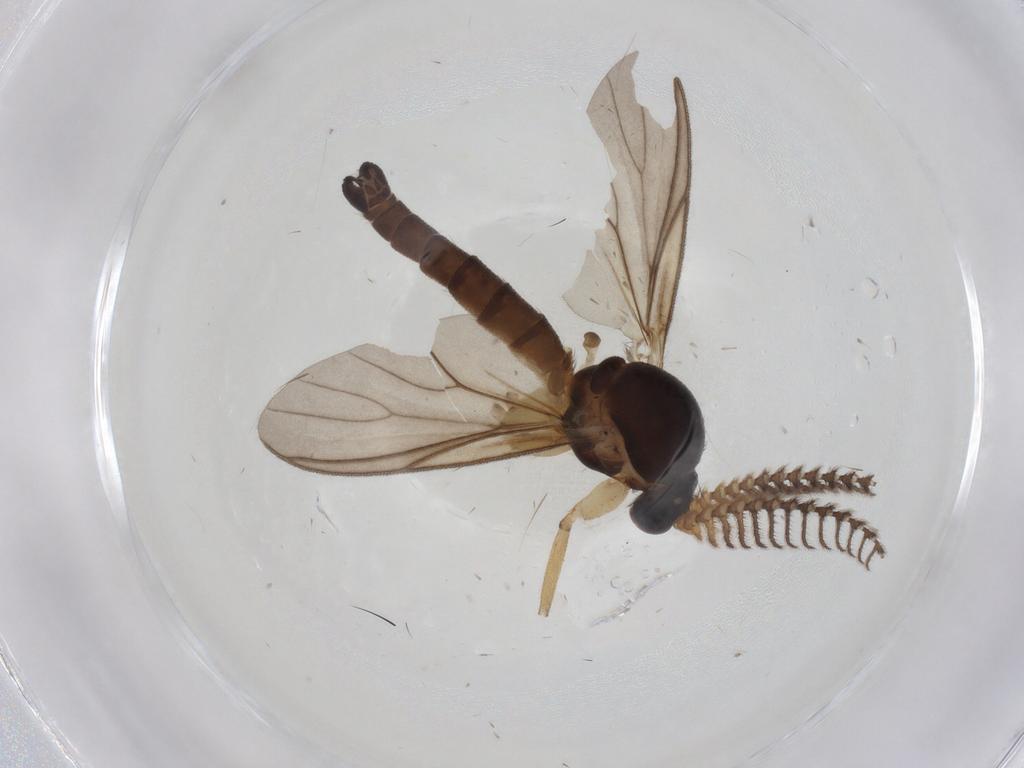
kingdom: Animalia
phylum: Arthropoda
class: Insecta
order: Diptera
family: Mycetophilidae
